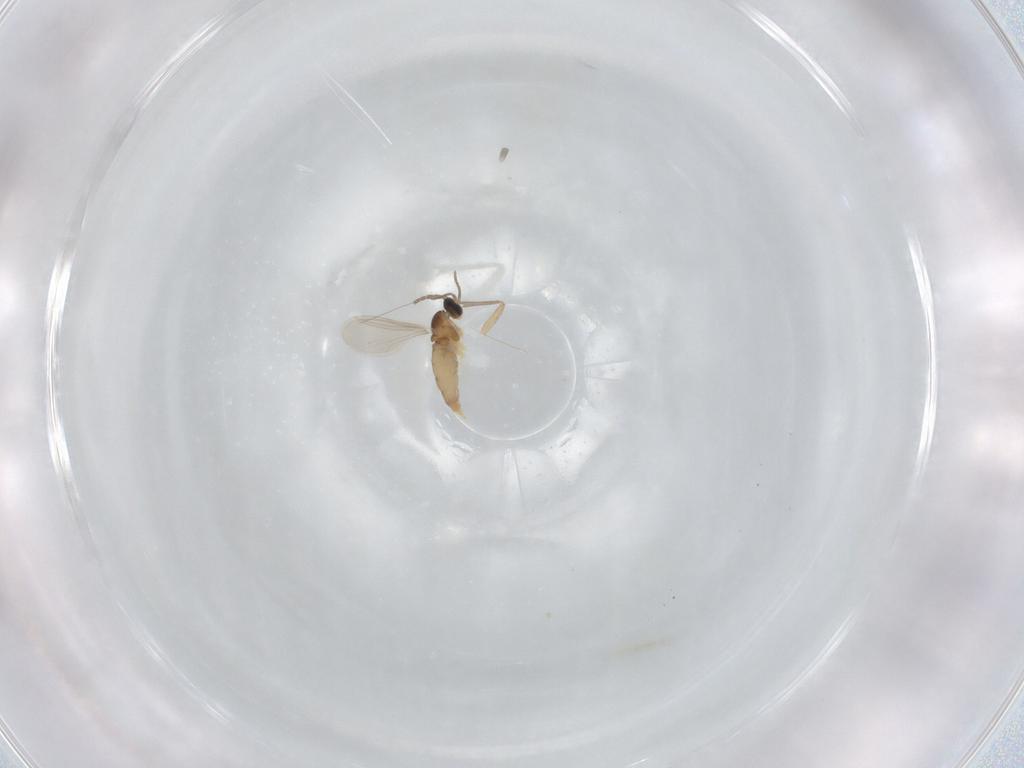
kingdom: Animalia
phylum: Arthropoda
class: Insecta
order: Diptera
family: Cecidomyiidae
